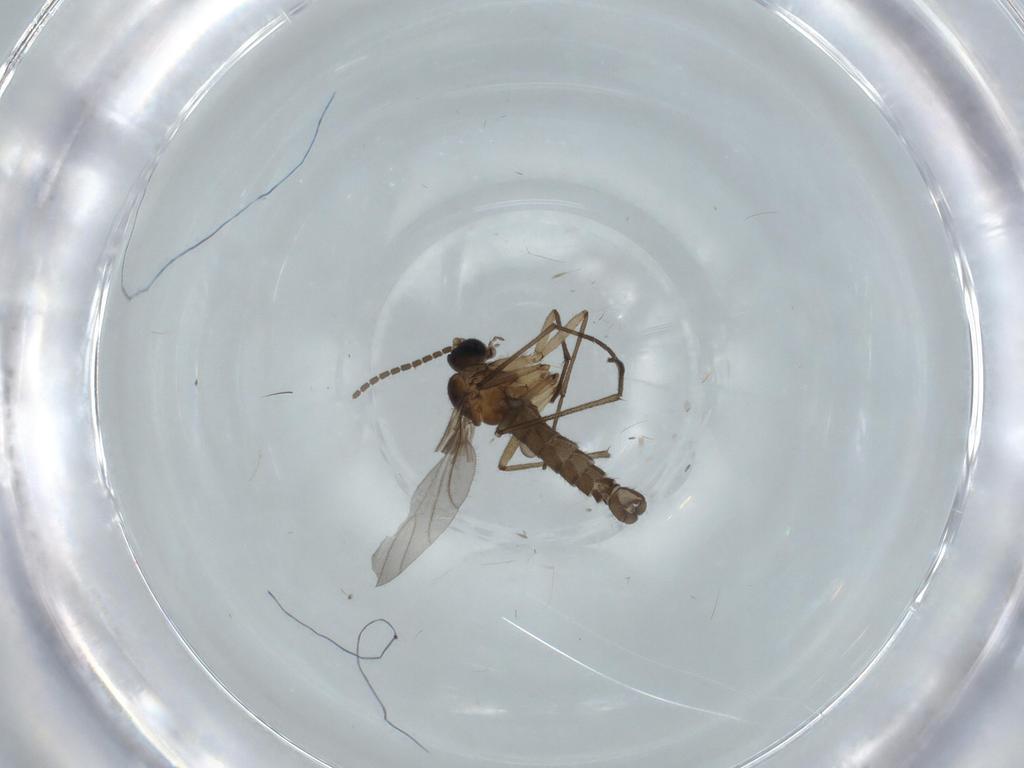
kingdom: Animalia
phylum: Arthropoda
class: Insecta
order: Diptera
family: Sciaridae
